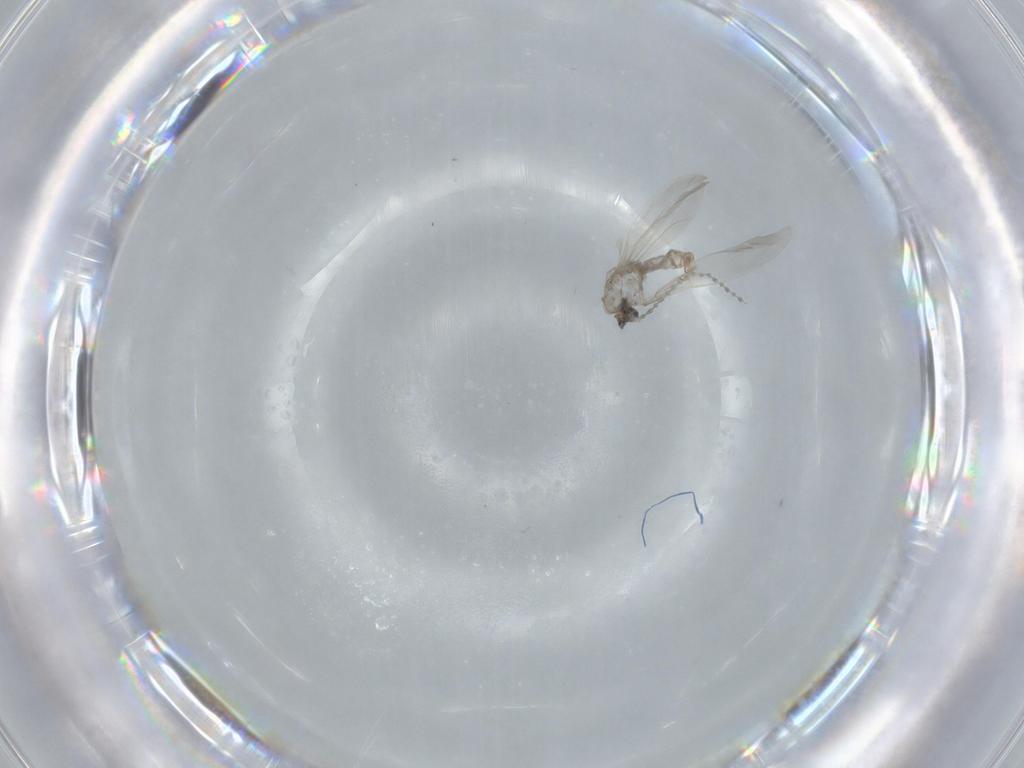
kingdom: Animalia
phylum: Arthropoda
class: Insecta
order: Diptera
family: Cecidomyiidae
